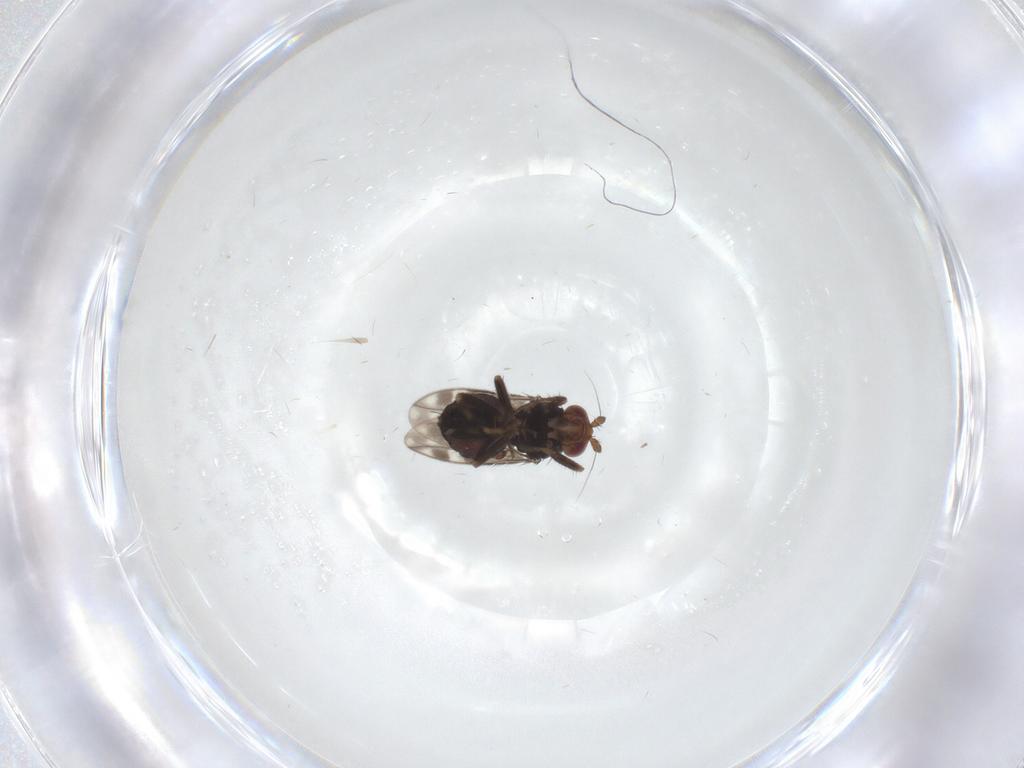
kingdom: Animalia
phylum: Arthropoda
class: Insecta
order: Diptera
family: Sphaeroceridae
